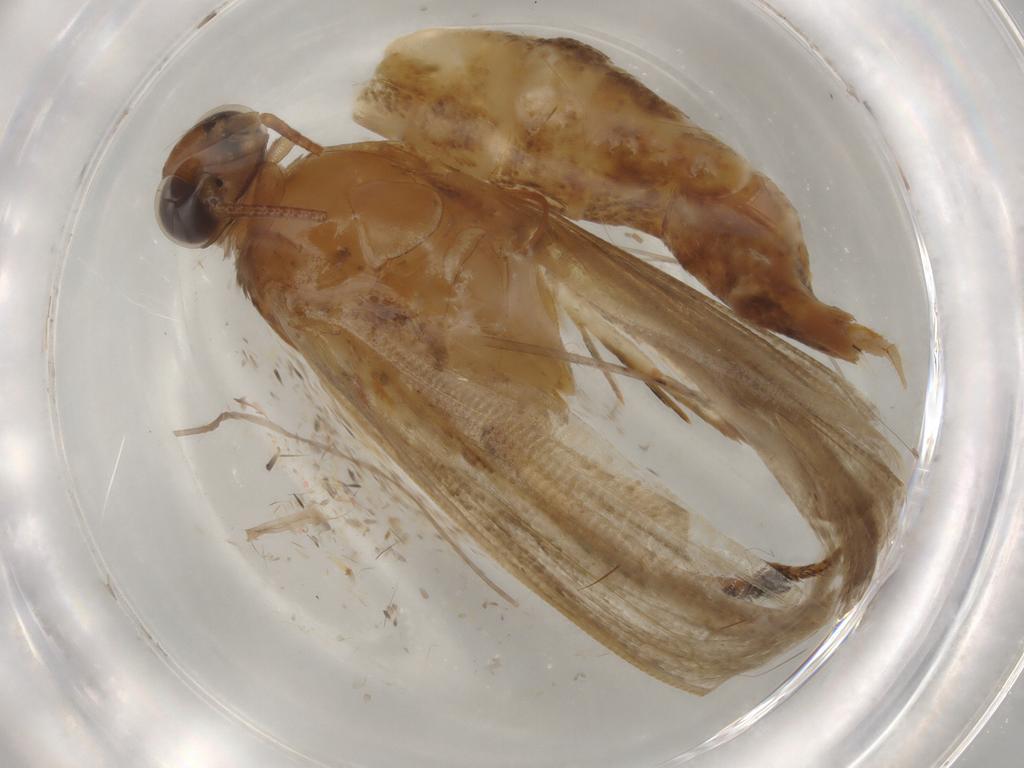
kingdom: Animalia
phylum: Arthropoda
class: Insecta
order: Lepidoptera
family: Pyralidae
